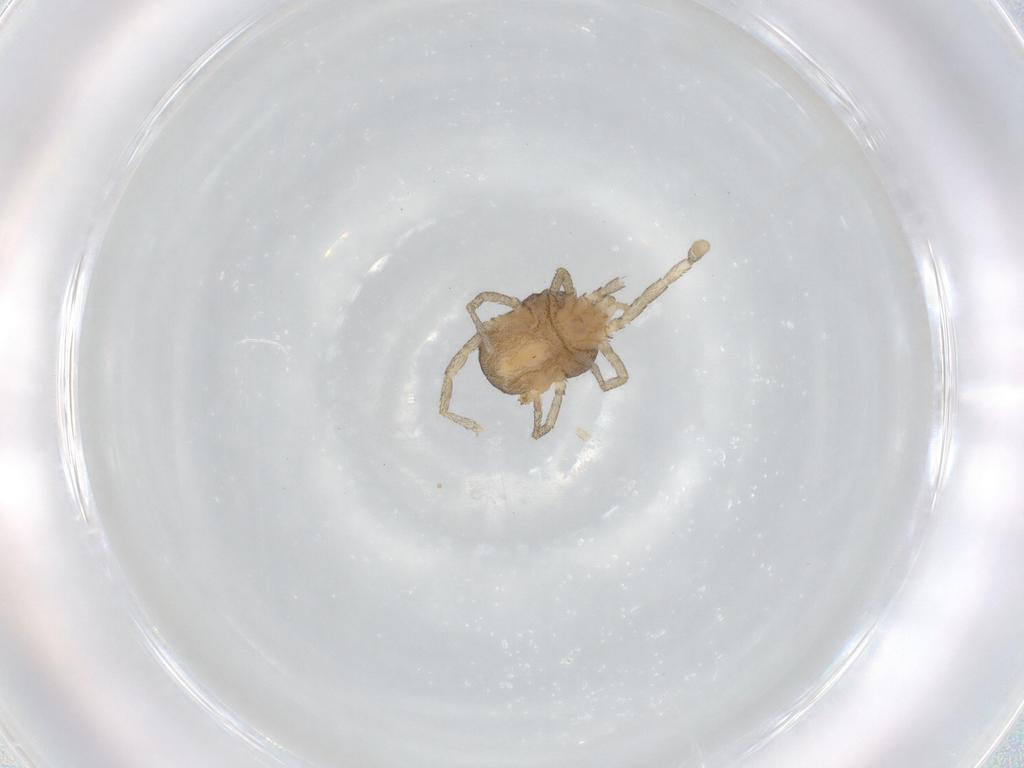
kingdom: Animalia
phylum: Arthropoda
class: Arachnida
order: Trombidiformes
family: Erythraeidae
